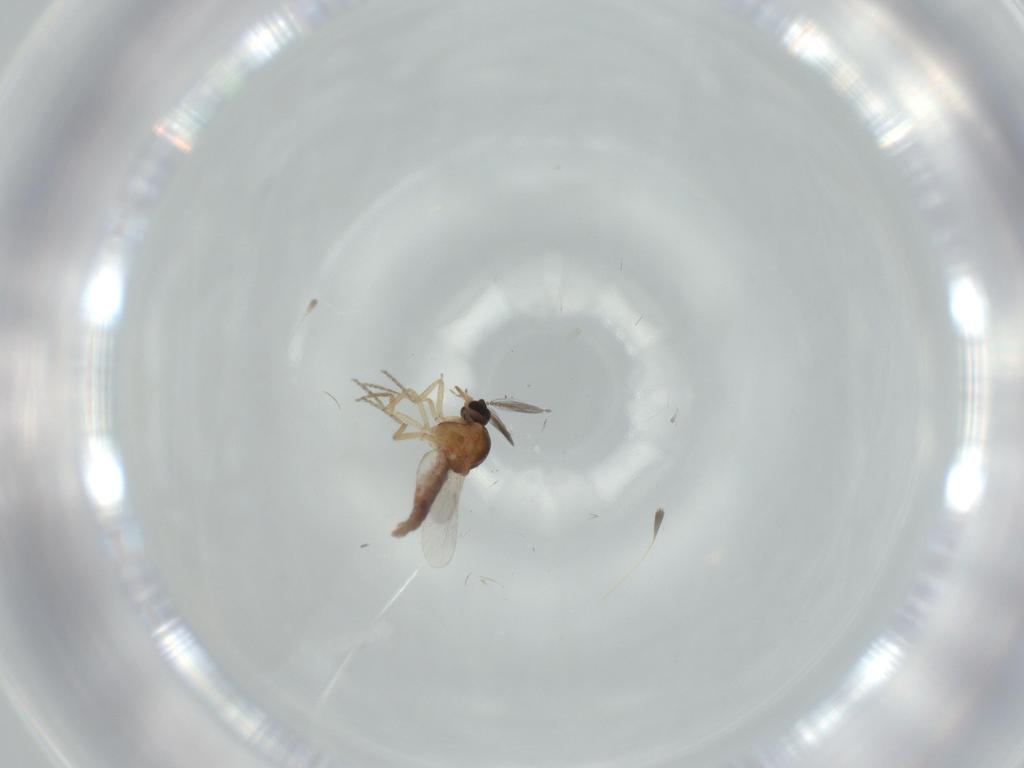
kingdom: Animalia
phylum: Arthropoda
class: Insecta
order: Diptera
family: Ceratopogonidae
